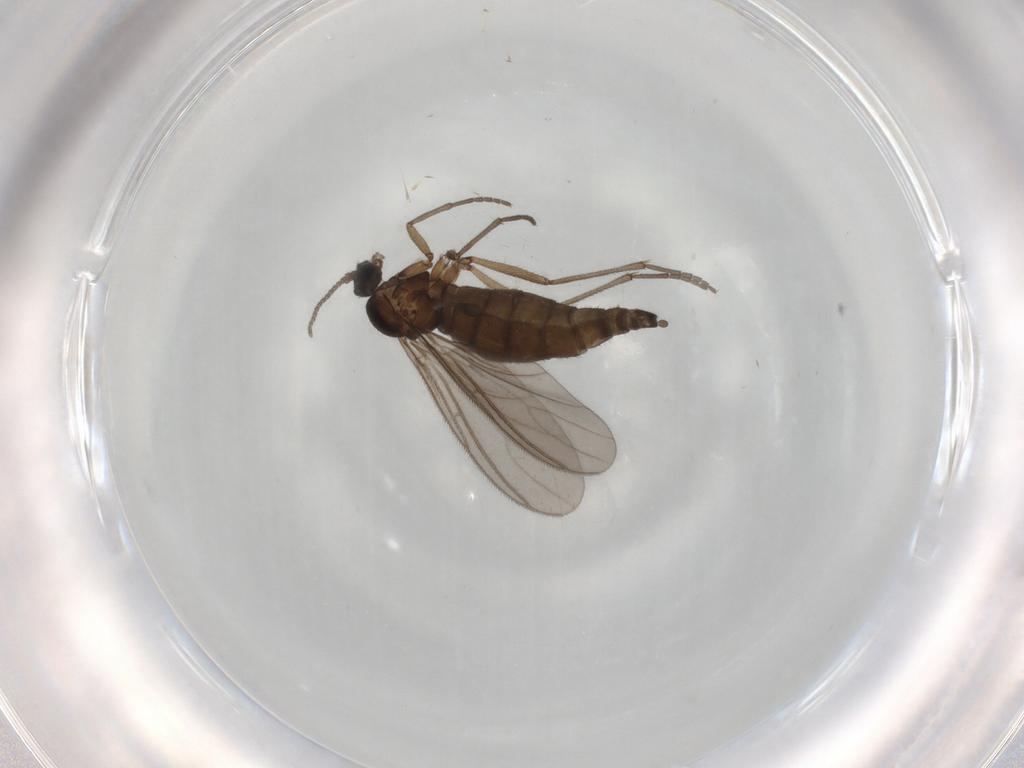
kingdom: Animalia
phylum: Arthropoda
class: Insecta
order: Diptera
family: Sciaridae
